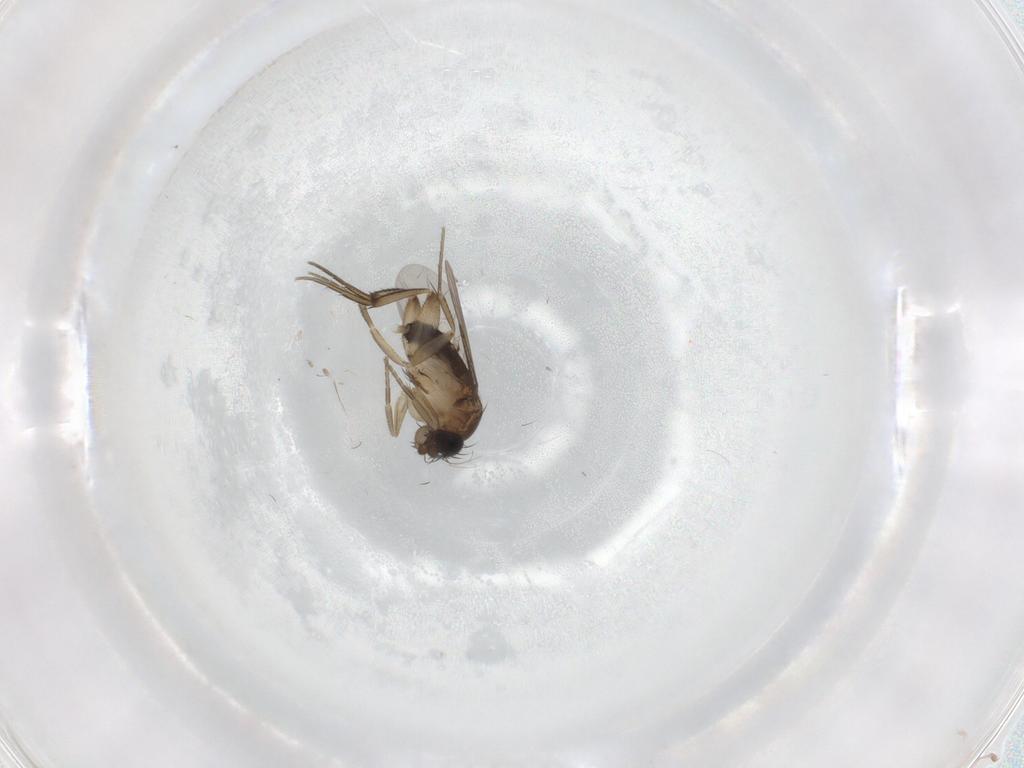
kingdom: Animalia
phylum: Arthropoda
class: Insecta
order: Diptera
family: Phoridae
